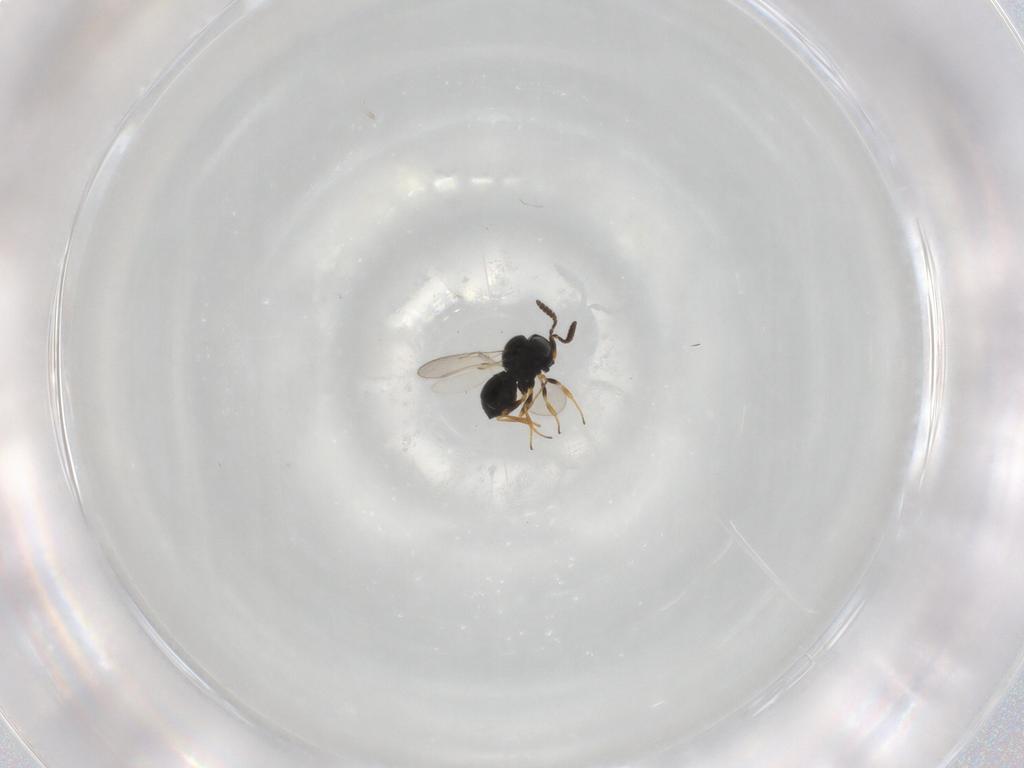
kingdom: Animalia
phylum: Arthropoda
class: Insecta
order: Hymenoptera
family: Scelionidae
